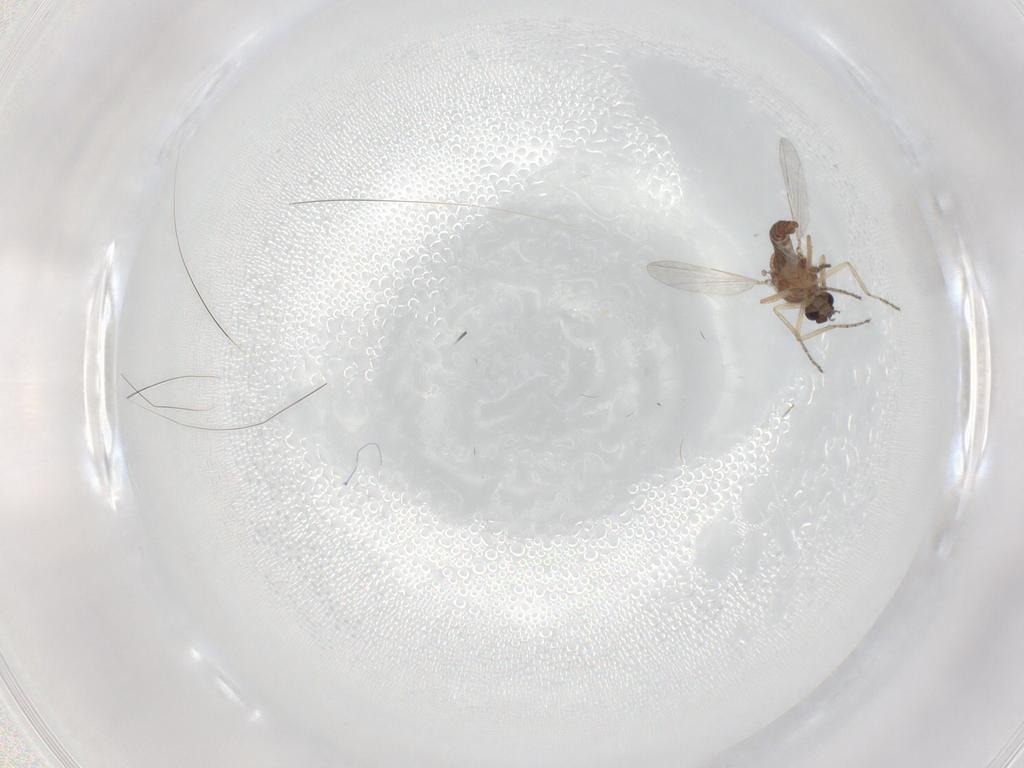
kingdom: Animalia
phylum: Arthropoda
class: Insecta
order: Diptera
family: Ceratopogonidae
